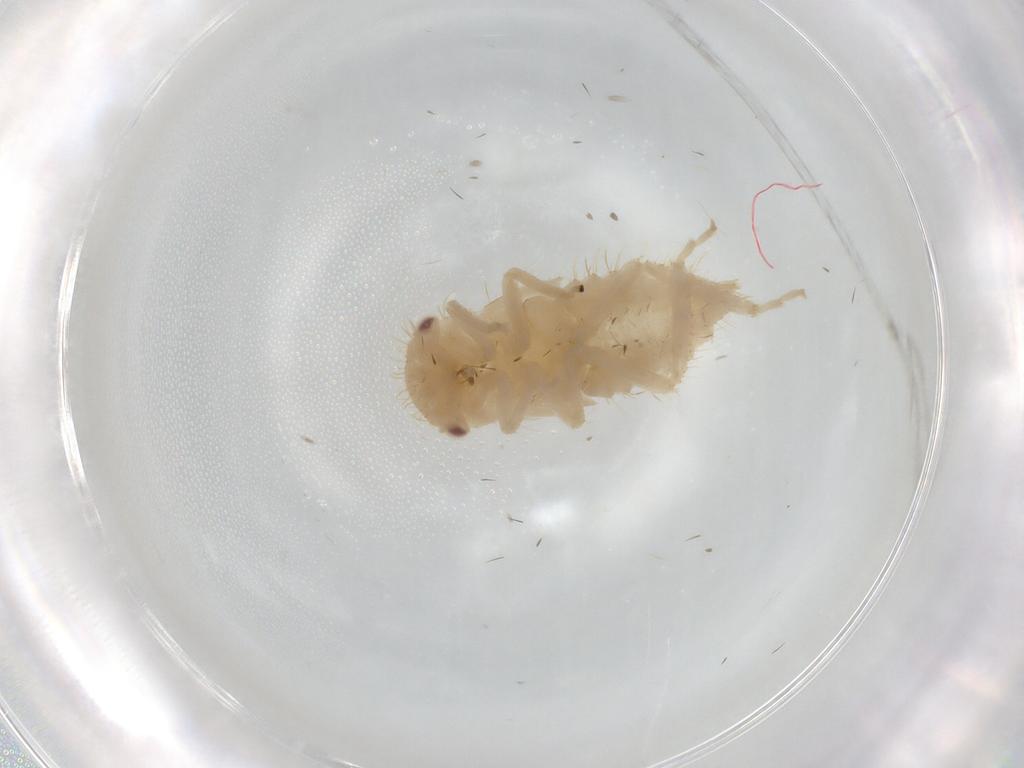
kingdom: Animalia
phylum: Arthropoda
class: Insecta
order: Hemiptera
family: Cicadellidae
